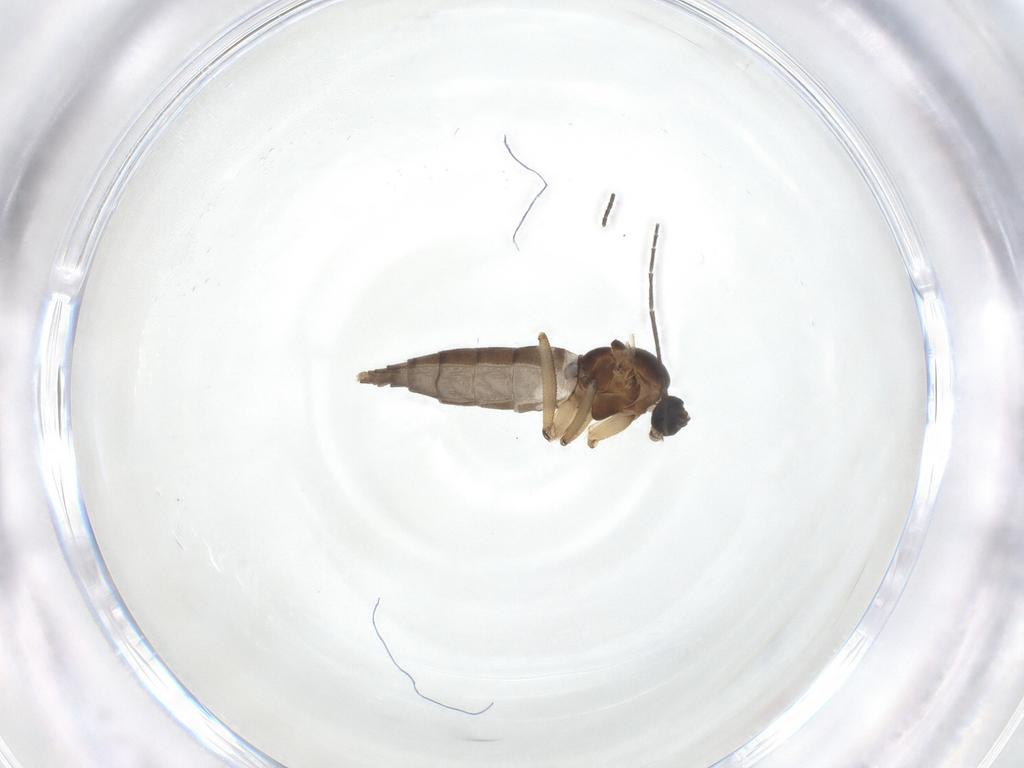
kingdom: Animalia
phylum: Arthropoda
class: Insecta
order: Diptera
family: Sciaridae
